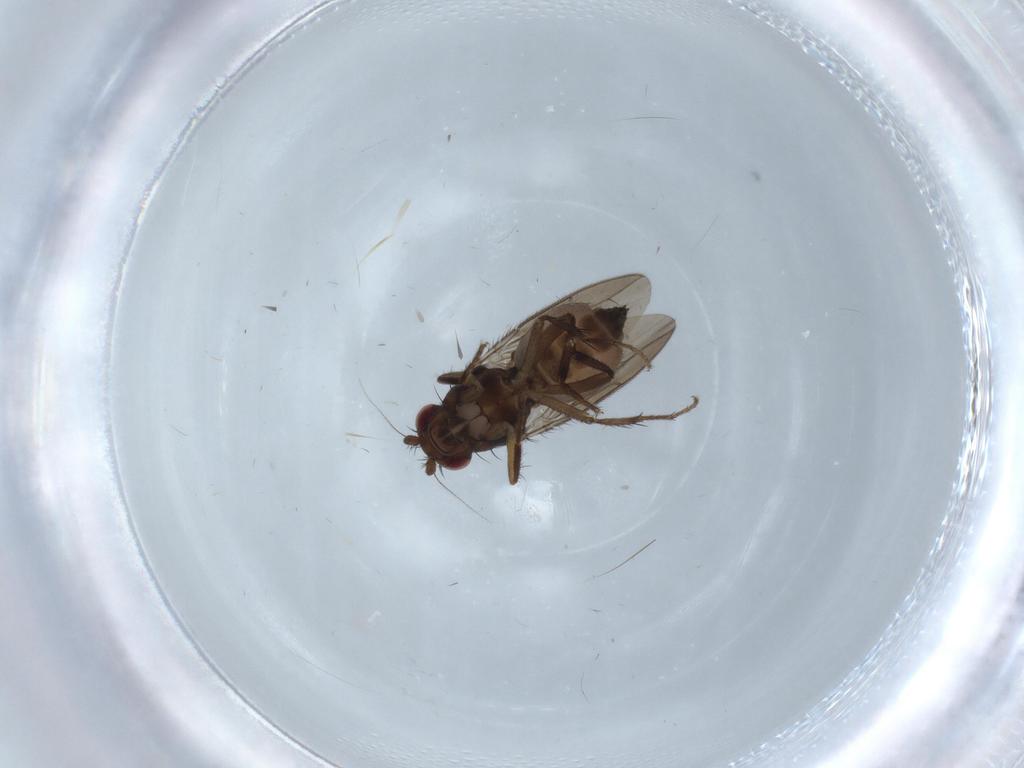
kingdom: Animalia
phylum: Arthropoda
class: Insecta
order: Diptera
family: Sphaeroceridae
